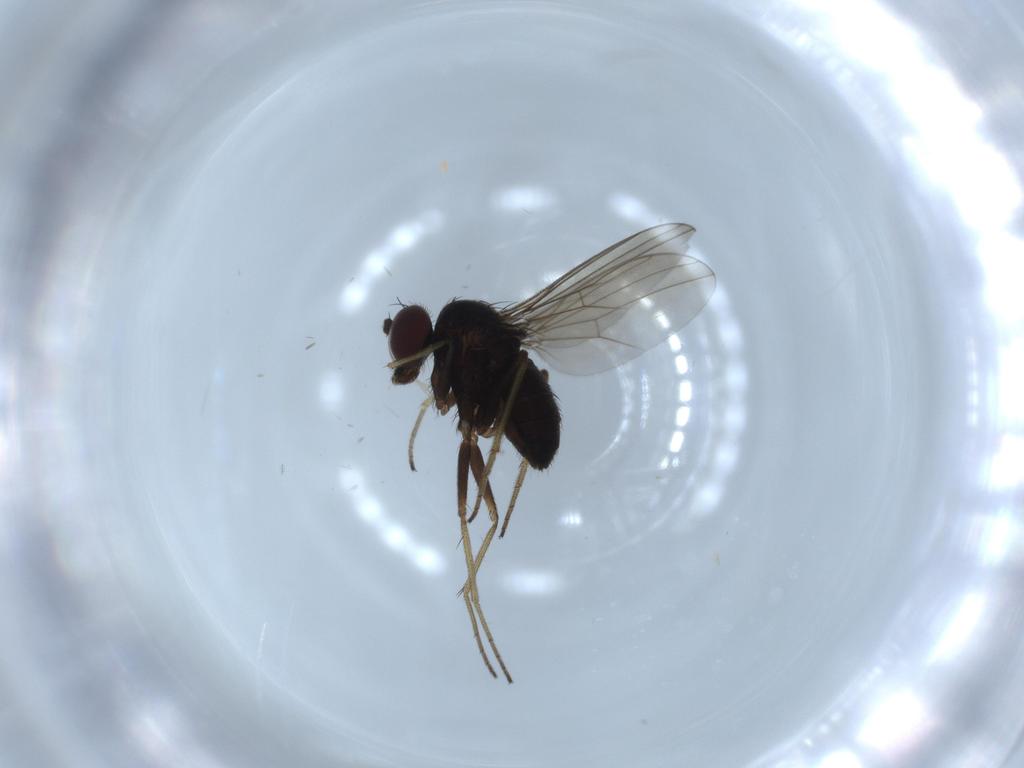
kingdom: Animalia
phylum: Arthropoda
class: Insecta
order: Diptera
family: Dolichopodidae
